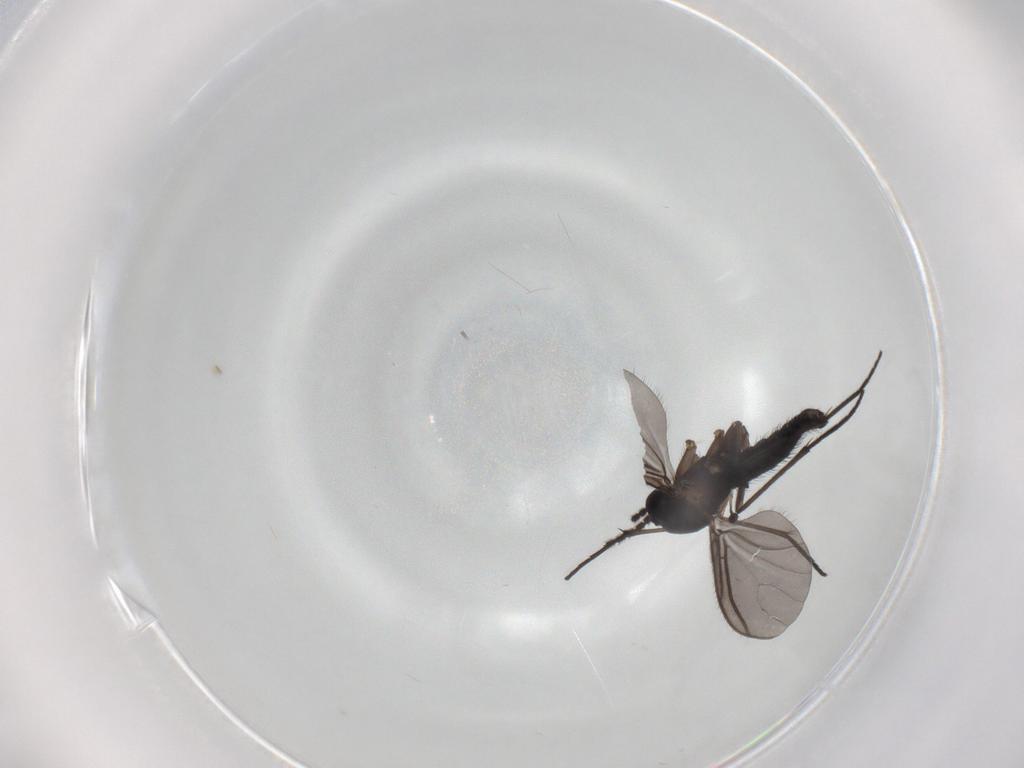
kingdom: Animalia
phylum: Arthropoda
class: Insecta
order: Diptera
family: Sciaridae
